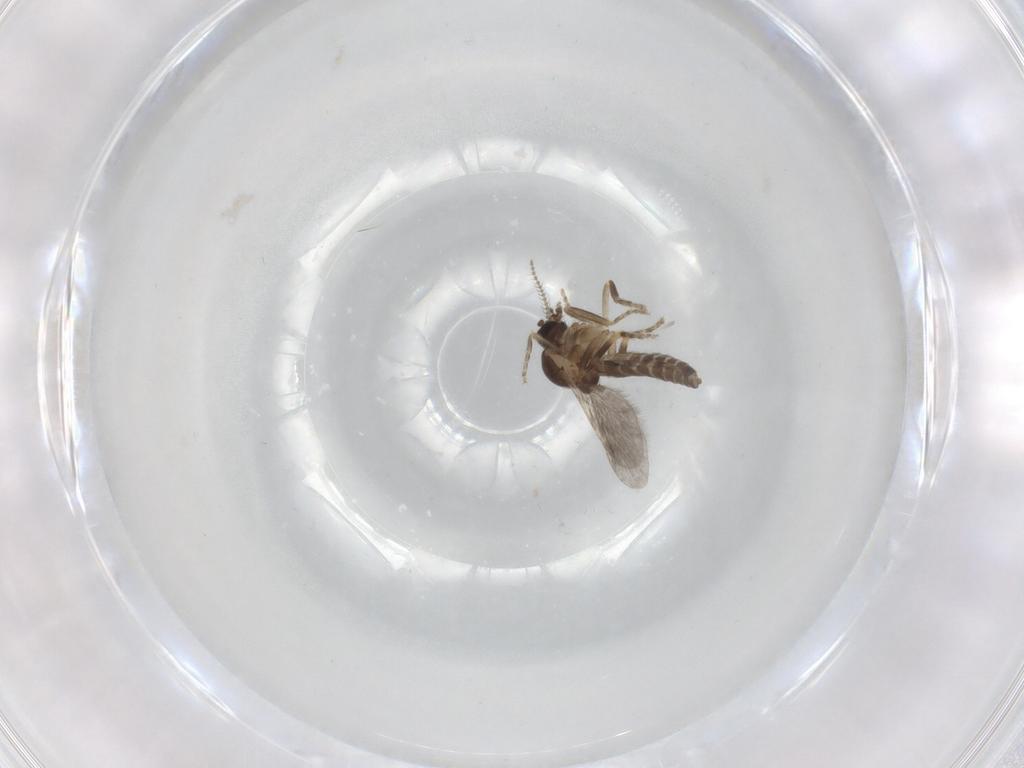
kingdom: Animalia
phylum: Arthropoda
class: Insecta
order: Diptera
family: Ceratopogonidae
